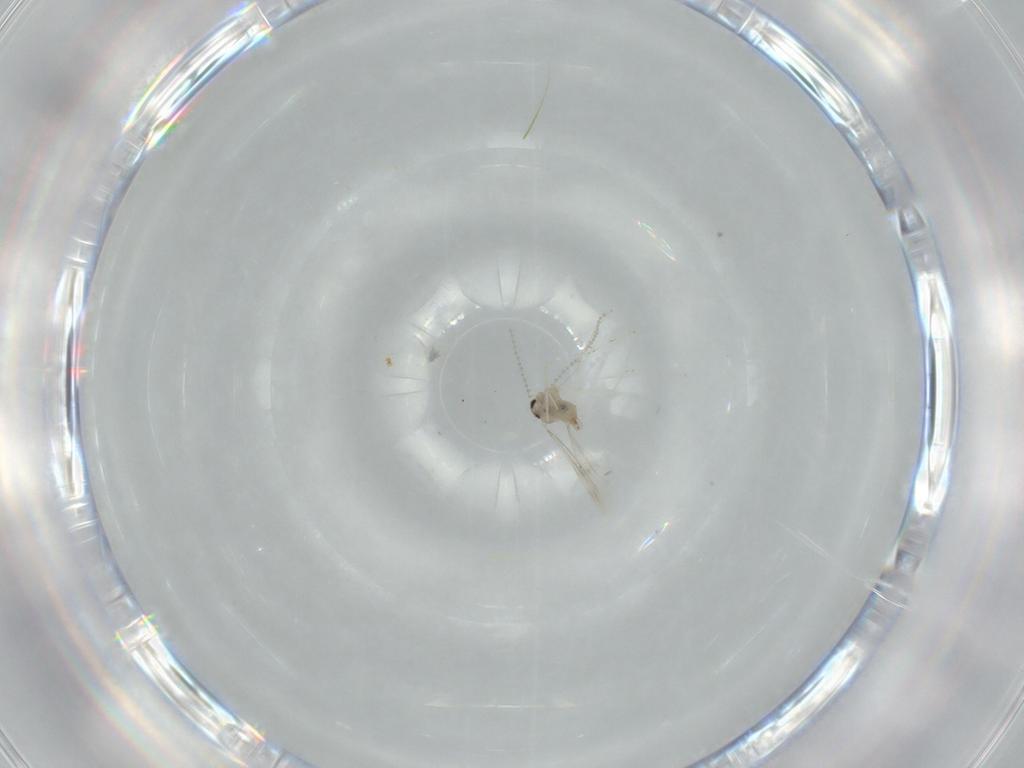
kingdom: Animalia
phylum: Arthropoda
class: Insecta
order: Diptera
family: Cecidomyiidae
